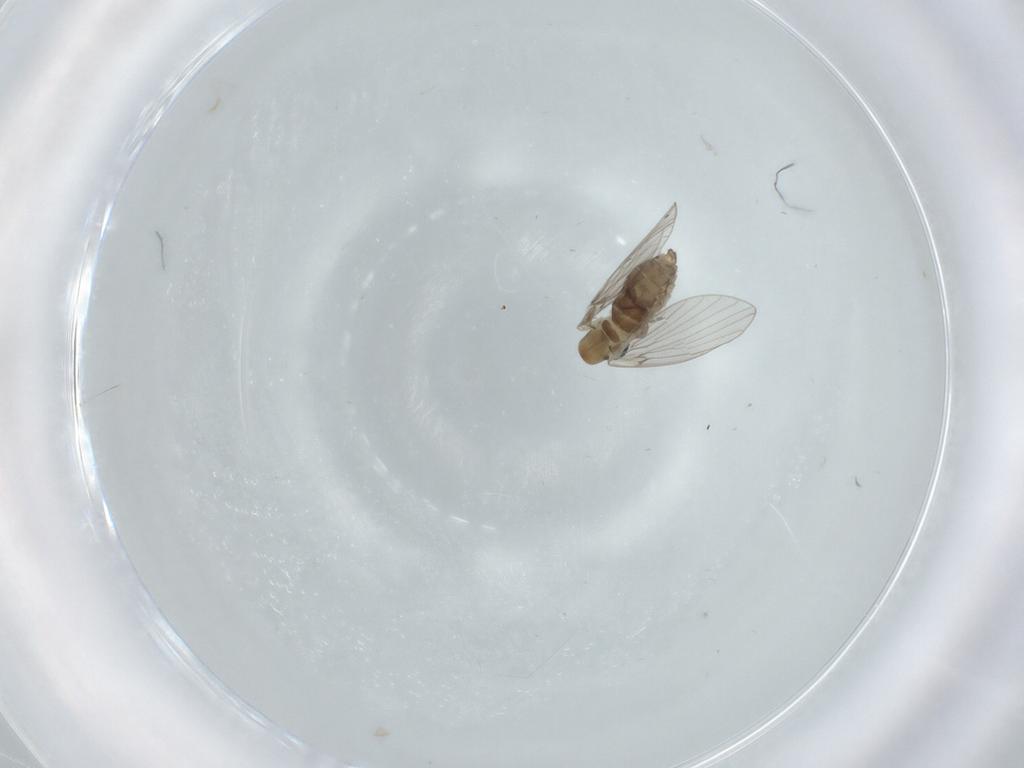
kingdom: Animalia
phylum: Arthropoda
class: Insecta
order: Diptera
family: Psychodidae
